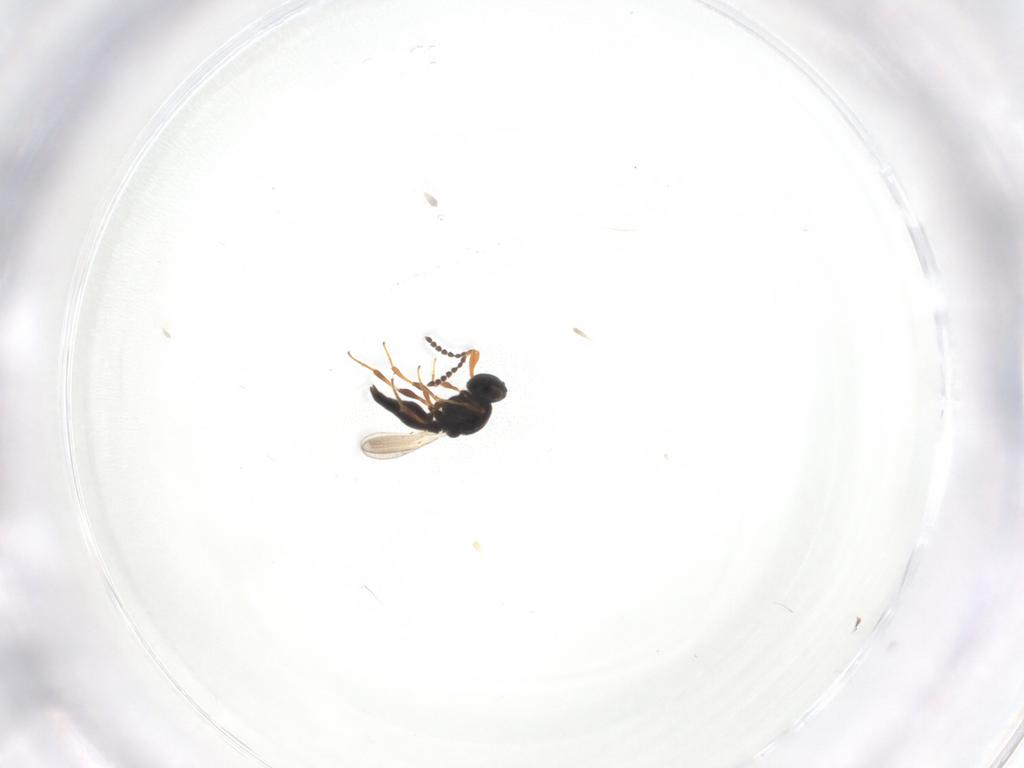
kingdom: Animalia
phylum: Arthropoda
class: Insecta
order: Hymenoptera
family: Platygastridae
